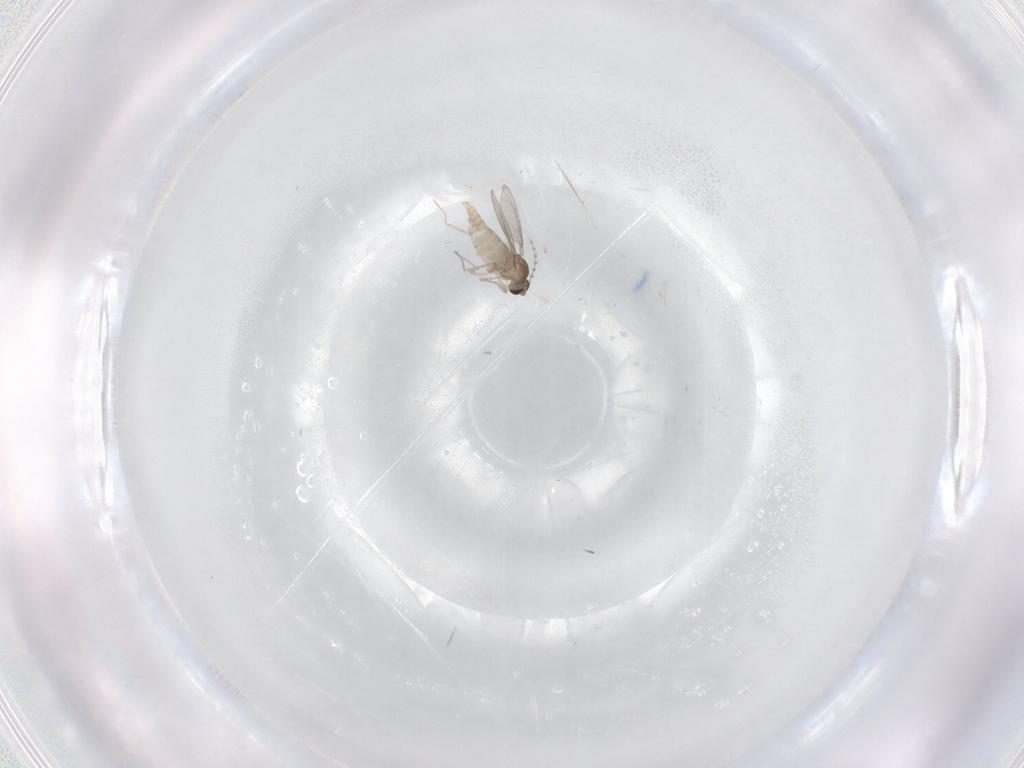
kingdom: Animalia
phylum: Arthropoda
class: Insecta
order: Diptera
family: Cecidomyiidae
